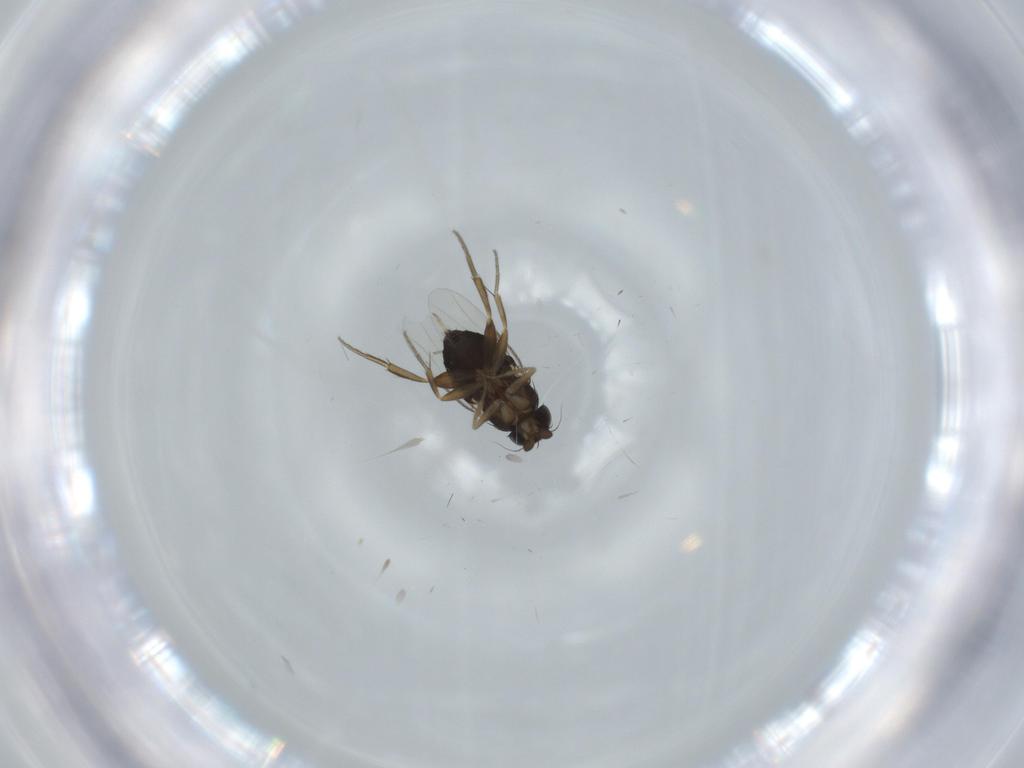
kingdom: Animalia
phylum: Arthropoda
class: Insecta
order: Diptera
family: Phoridae
